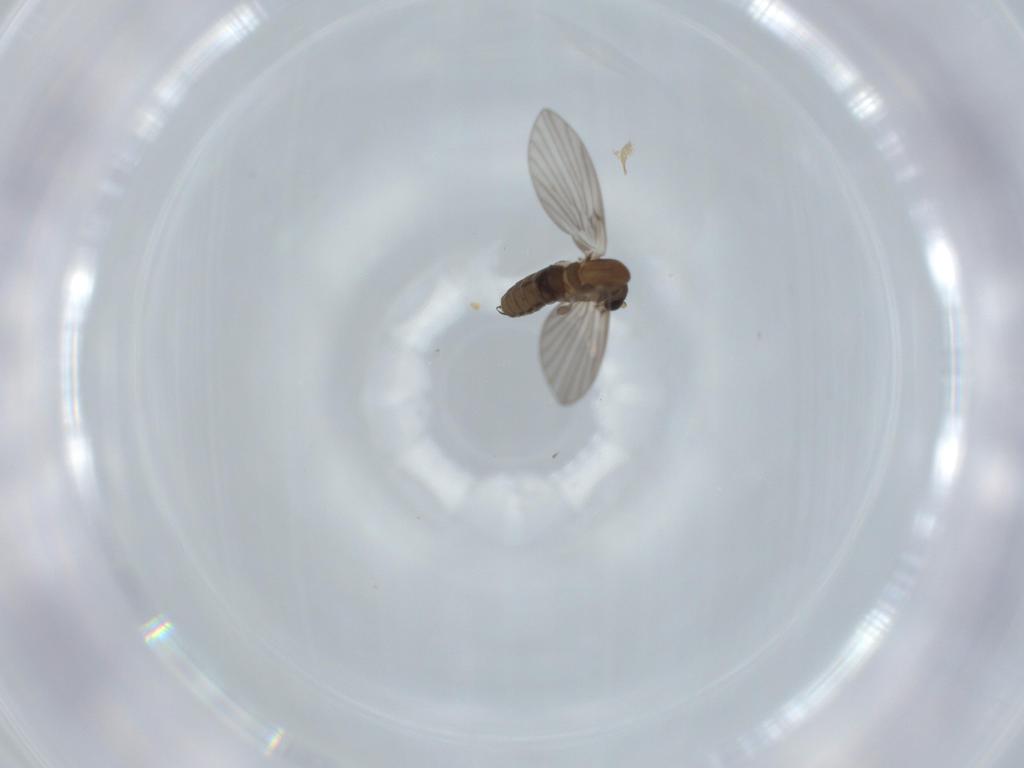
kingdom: Animalia
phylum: Arthropoda
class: Insecta
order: Diptera
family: Psychodidae
